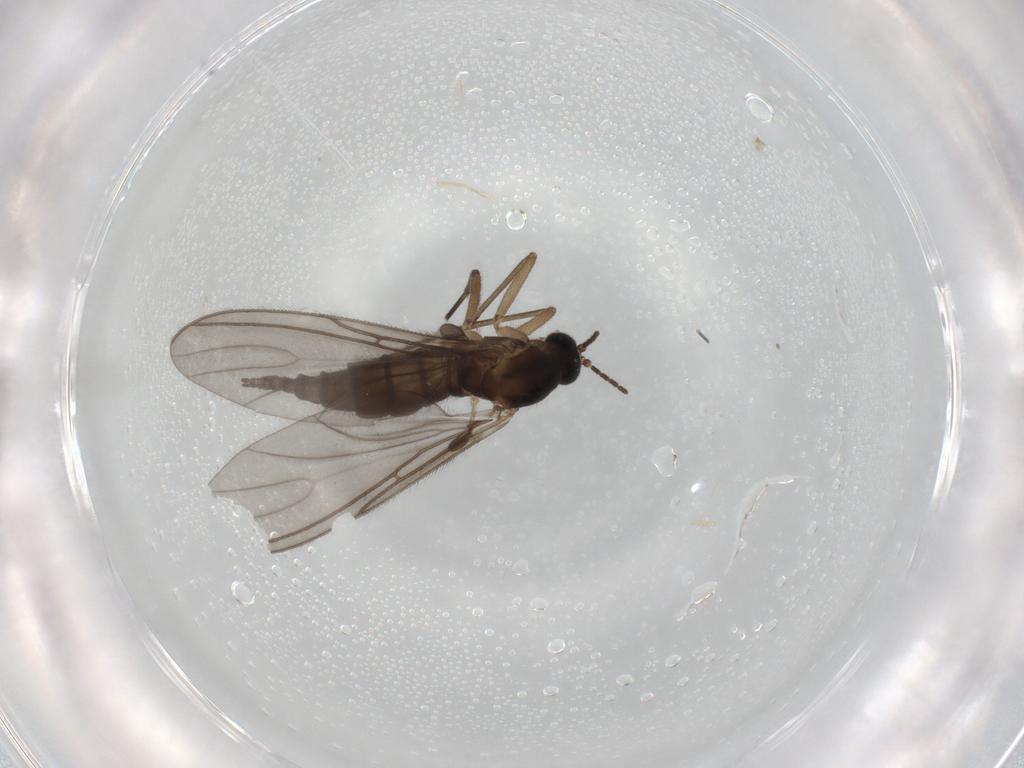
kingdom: Animalia
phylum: Arthropoda
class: Insecta
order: Diptera
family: Sciaridae
